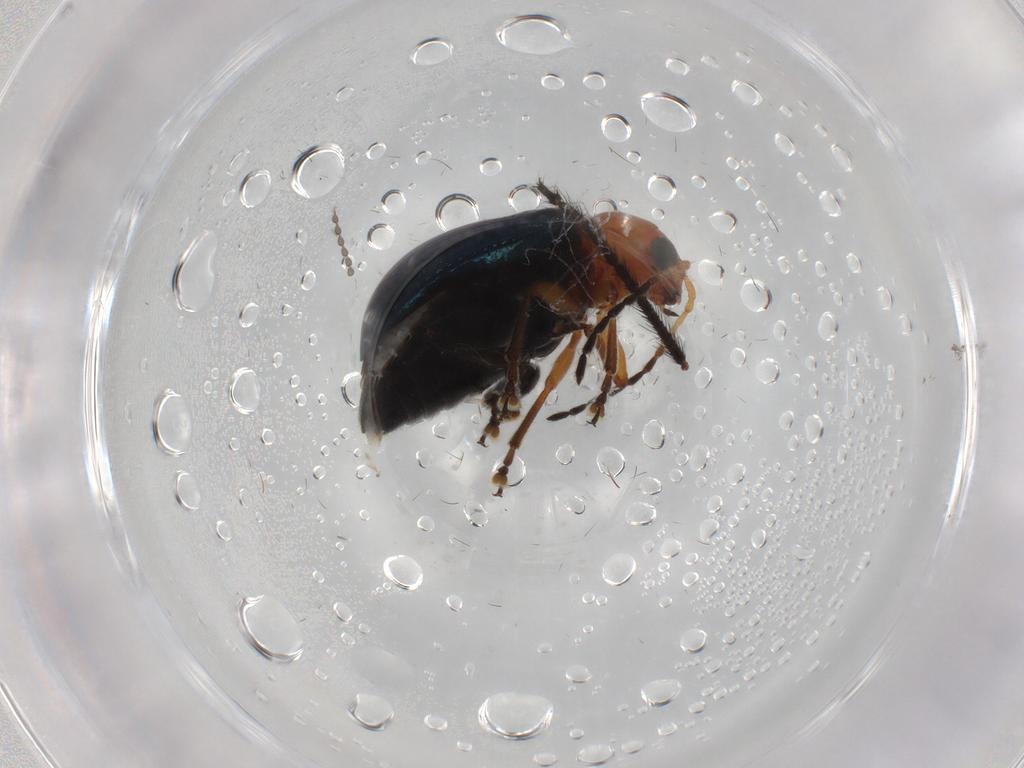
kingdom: Animalia
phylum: Arthropoda
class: Insecta
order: Coleoptera
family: Chrysomelidae
